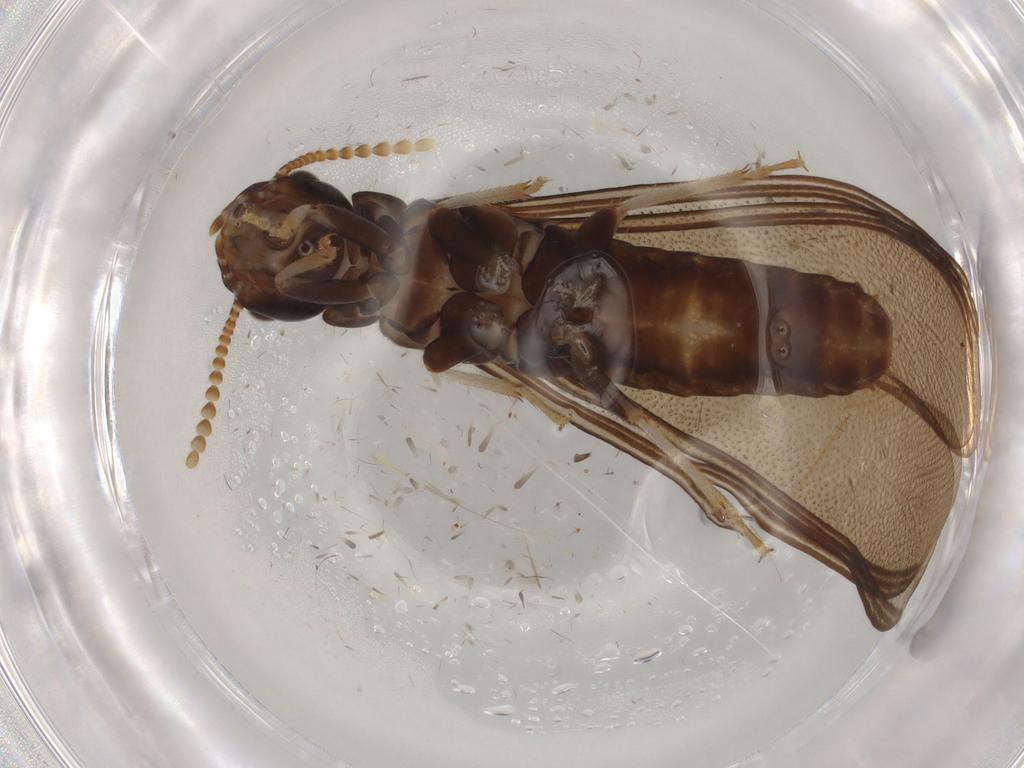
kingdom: Animalia
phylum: Arthropoda
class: Insecta
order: Blattodea
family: Kalotermitidae
